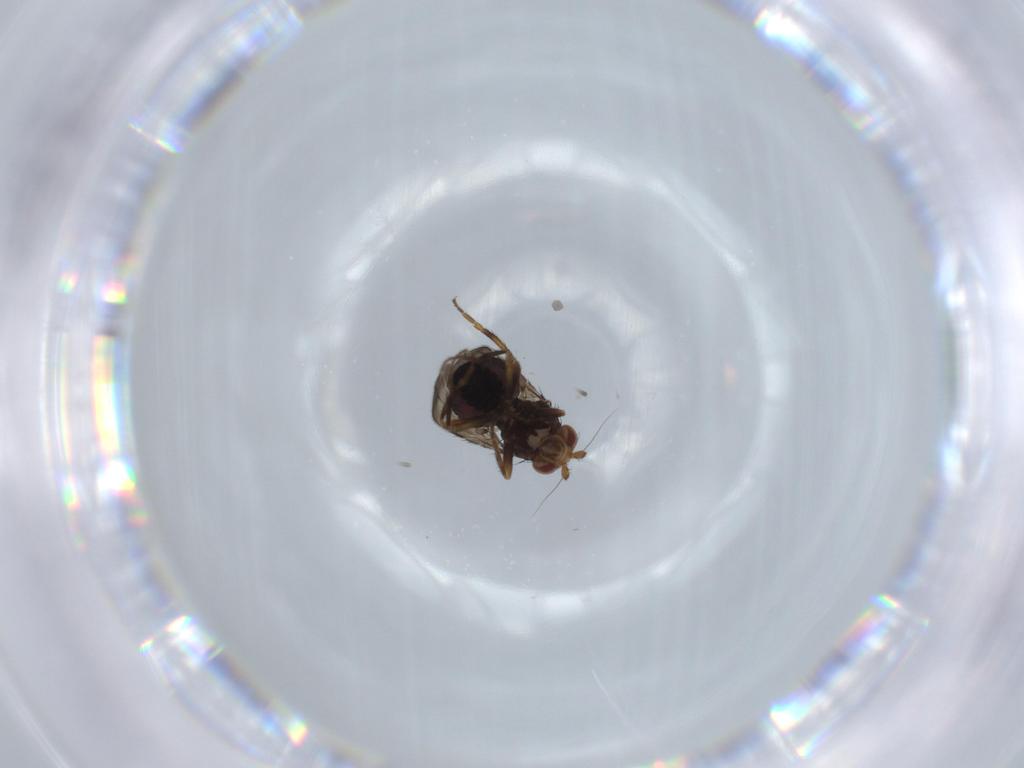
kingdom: Animalia
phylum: Arthropoda
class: Insecta
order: Diptera
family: Sphaeroceridae
